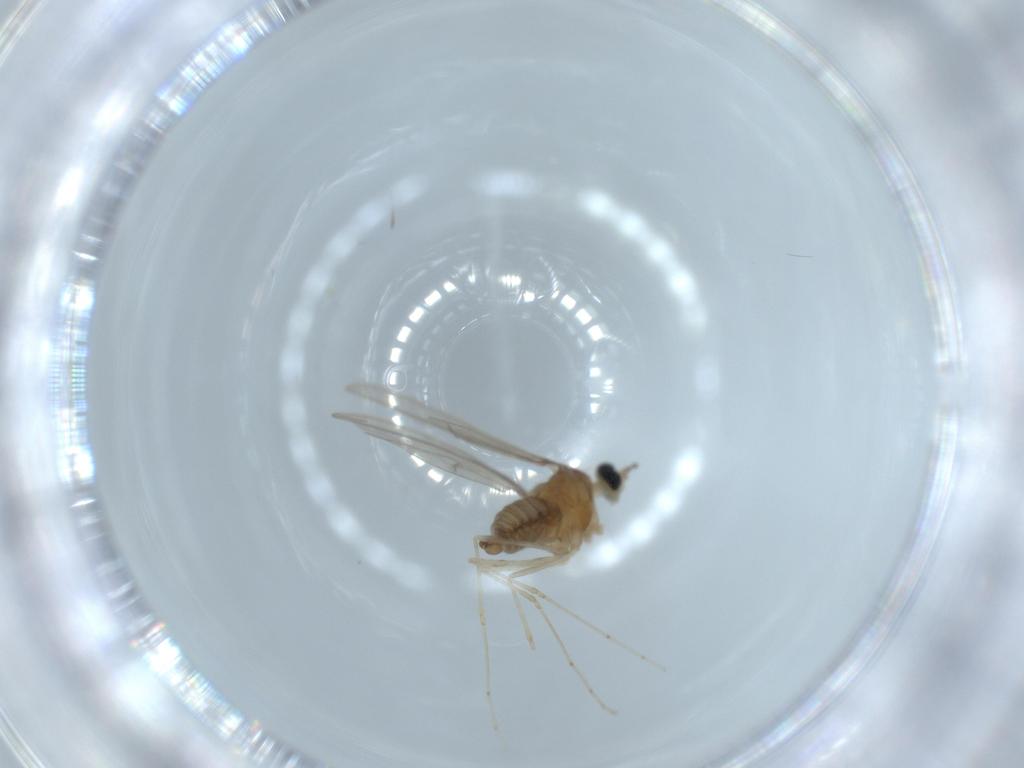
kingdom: Animalia
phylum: Arthropoda
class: Insecta
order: Diptera
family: Cecidomyiidae
